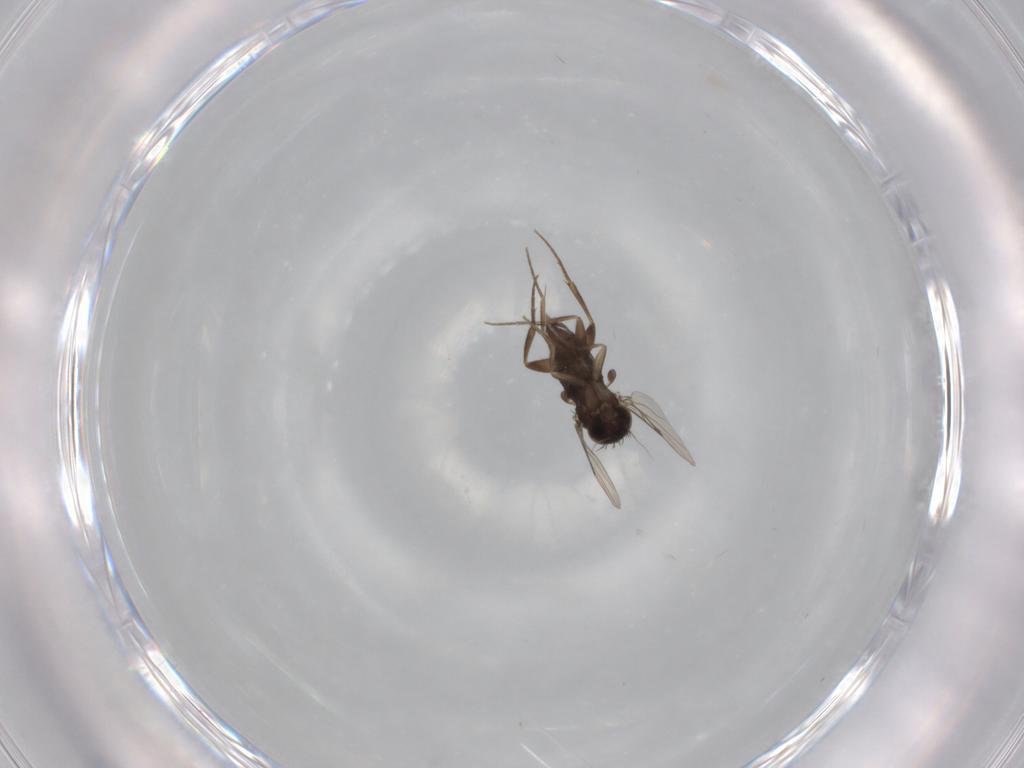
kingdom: Animalia
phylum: Arthropoda
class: Insecta
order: Diptera
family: Phoridae
